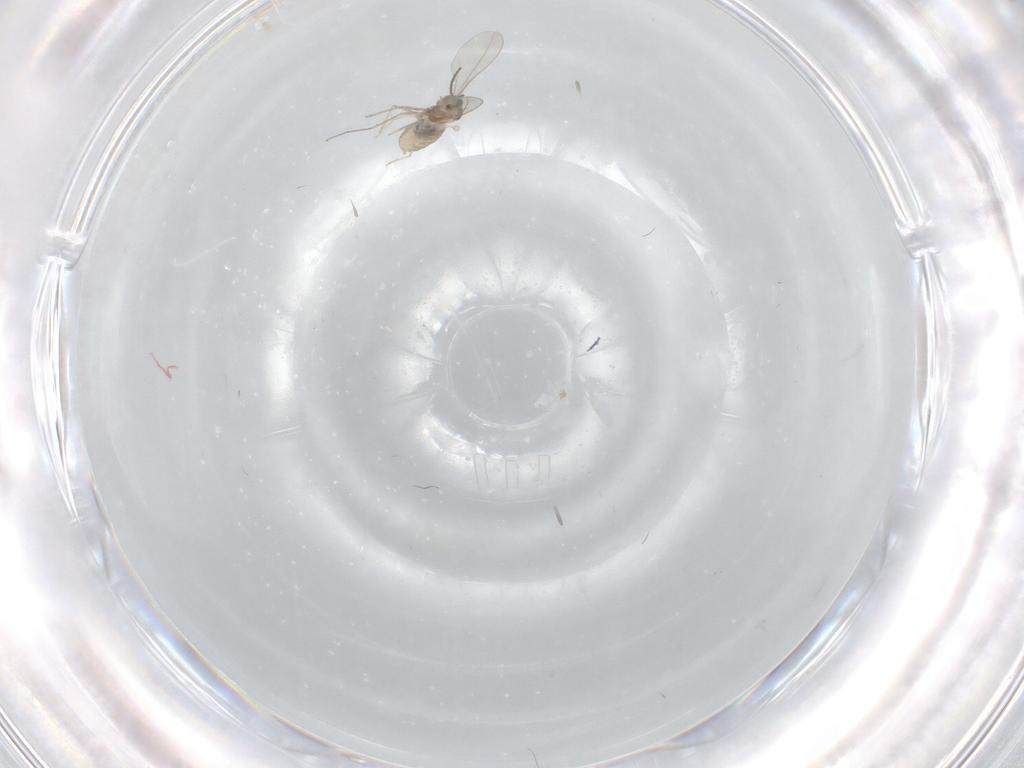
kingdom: Animalia
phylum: Arthropoda
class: Insecta
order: Diptera
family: Cecidomyiidae
